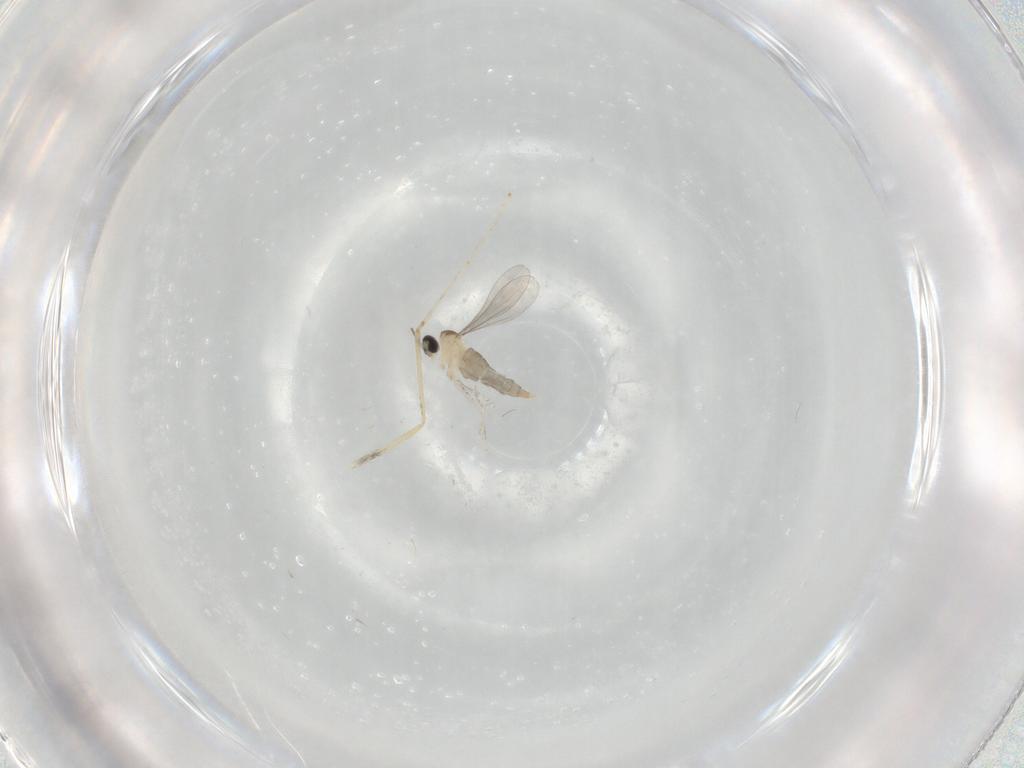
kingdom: Animalia
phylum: Arthropoda
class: Insecta
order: Diptera
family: Cecidomyiidae
